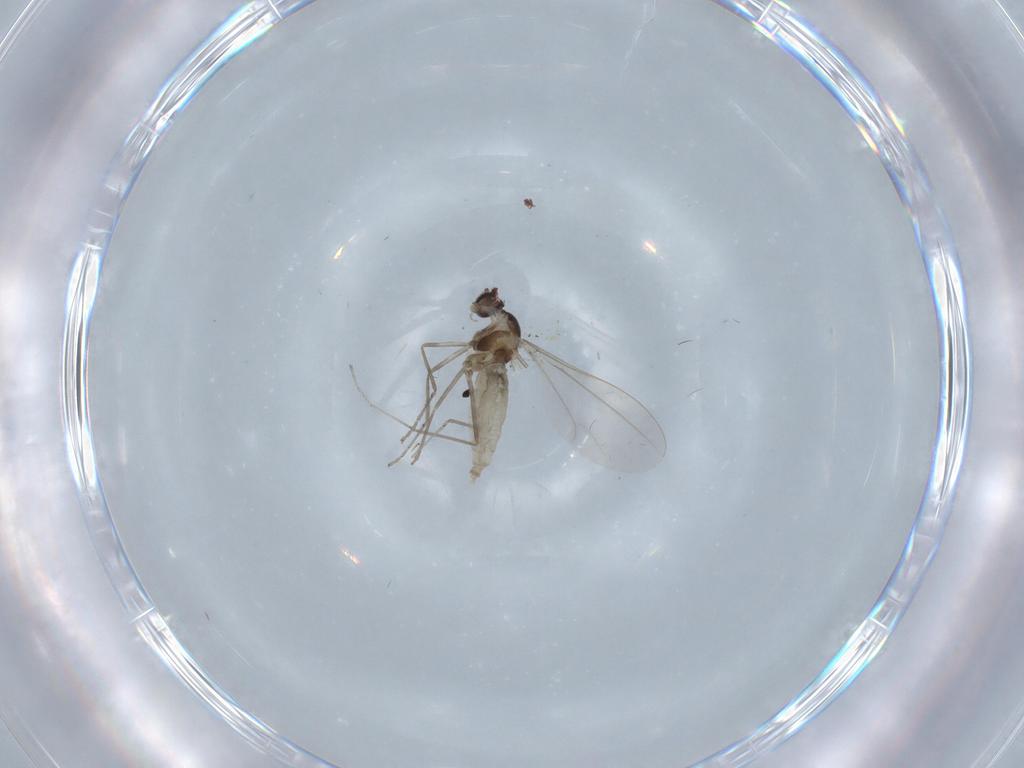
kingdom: Animalia
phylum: Arthropoda
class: Insecta
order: Diptera
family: Cecidomyiidae
